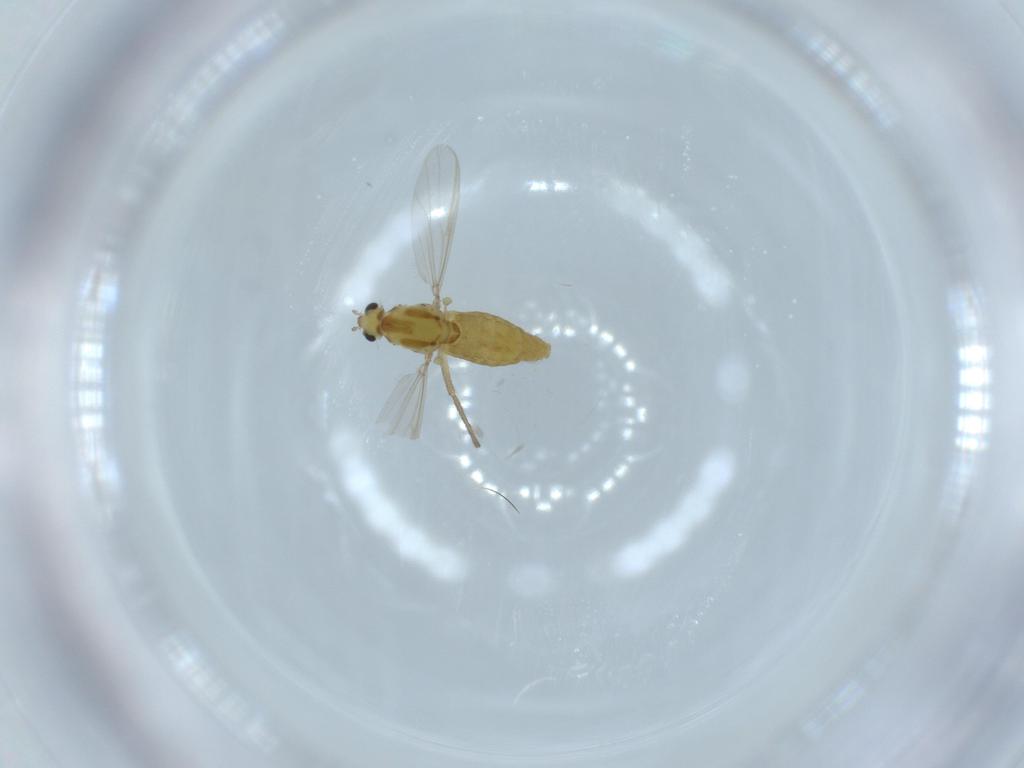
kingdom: Animalia
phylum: Arthropoda
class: Insecta
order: Diptera
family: Chironomidae
